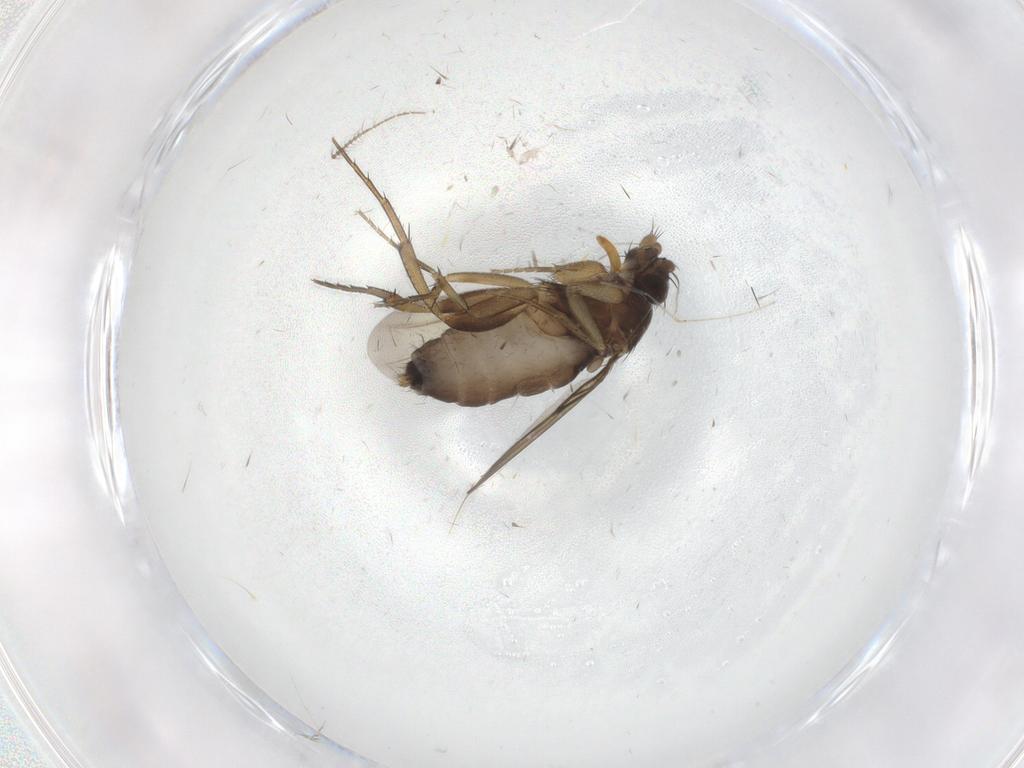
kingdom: Animalia
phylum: Arthropoda
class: Insecta
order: Diptera
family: Phoridae
